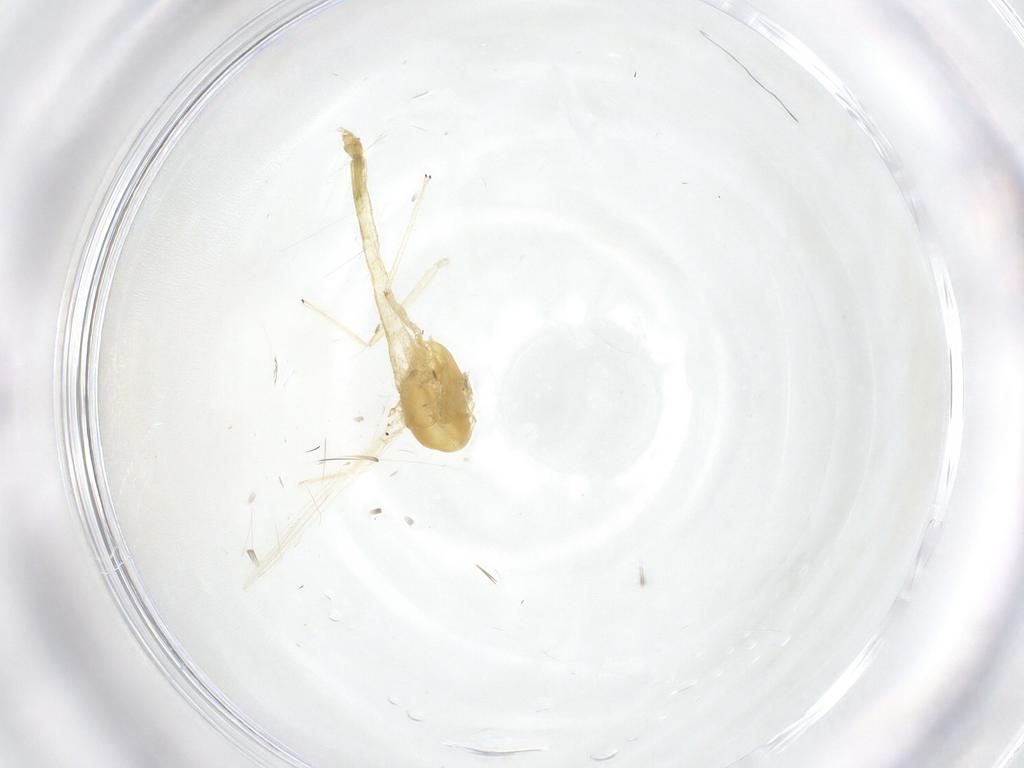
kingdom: Animalia
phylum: Arthropoda
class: Insecta
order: Diptera
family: Chironomidae
